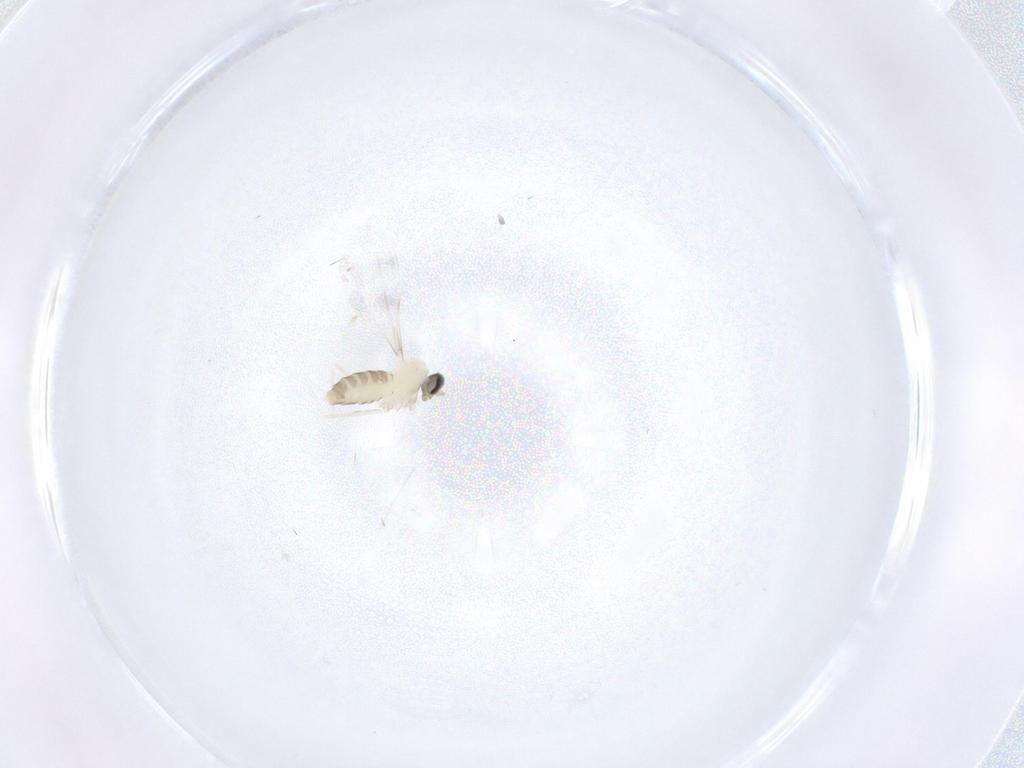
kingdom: Animalia
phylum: Arthropoda
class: Insecta
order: Diptera
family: Cecidomyiidae
